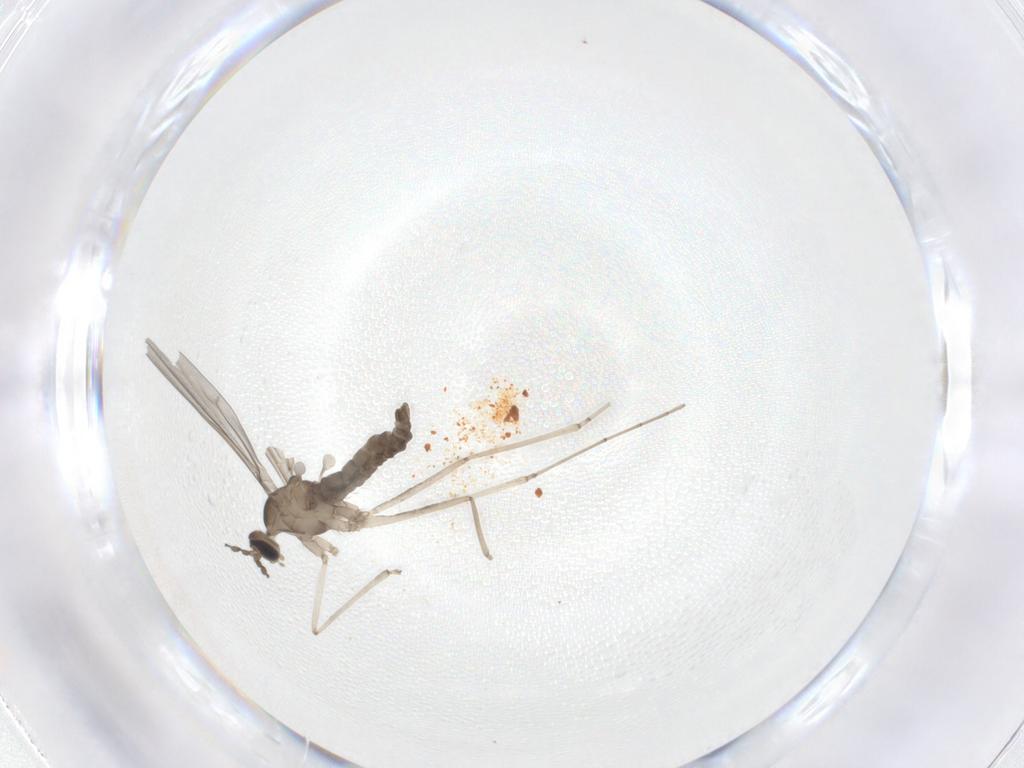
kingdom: Animalia
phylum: Arthropoda
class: Insecta
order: Diptera
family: Cecidomyiidae
